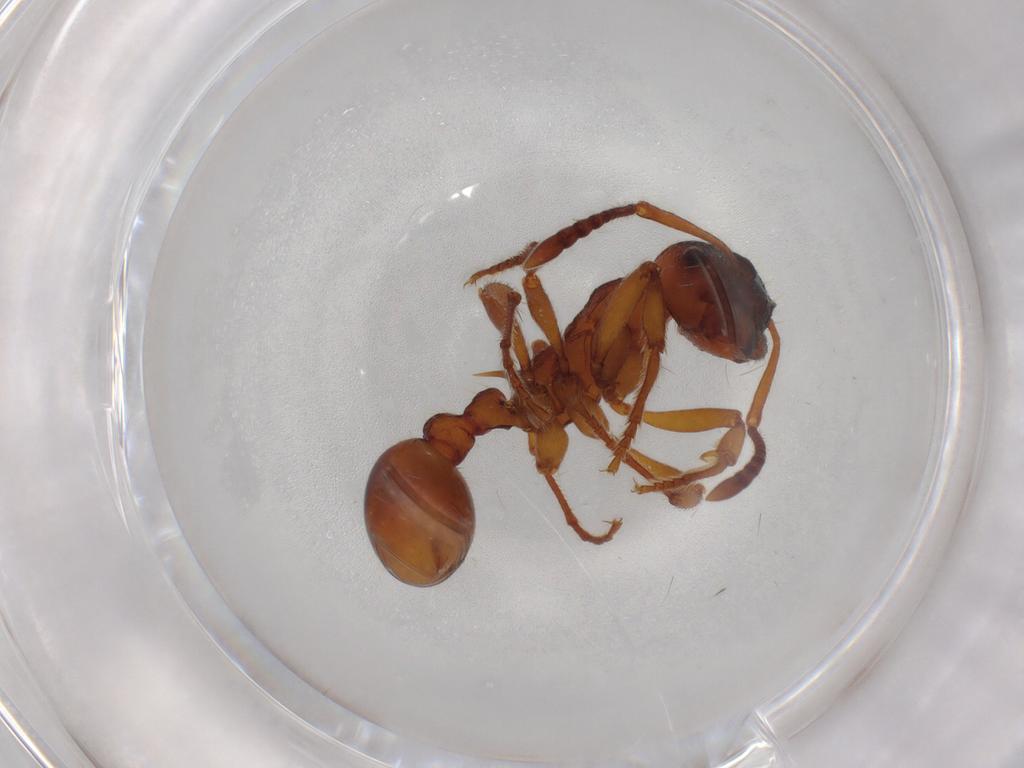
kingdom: Animalia
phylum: Arthropoda
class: Insecta
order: Hymenoptera
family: Formicidae
